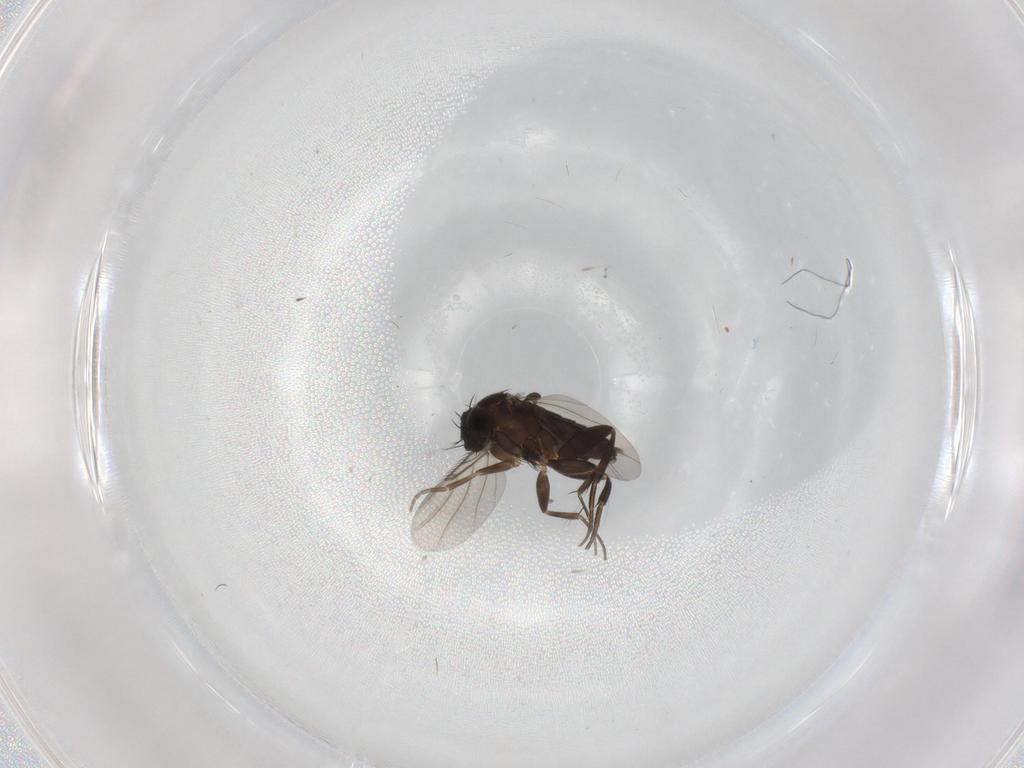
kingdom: Animalia
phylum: Arthropoda
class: Insecta
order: Diptera
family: Cecidomyiidae
